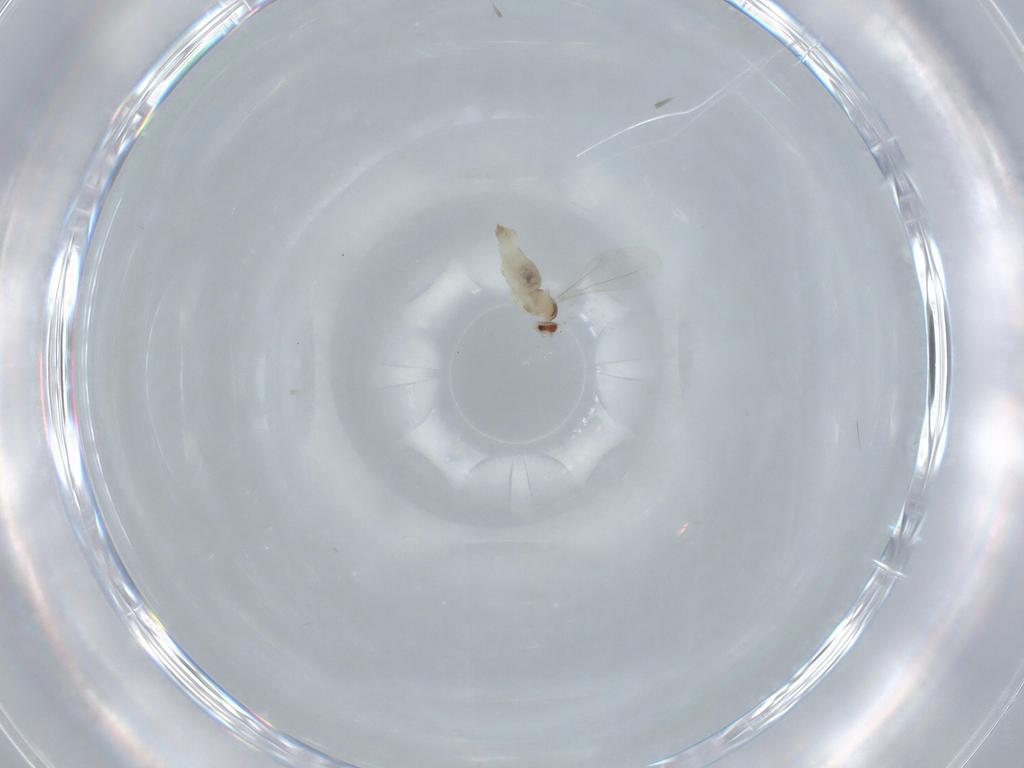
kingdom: Animalia
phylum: Arthropoda
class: Insecta
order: Diptera
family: Cecidomyiidae
